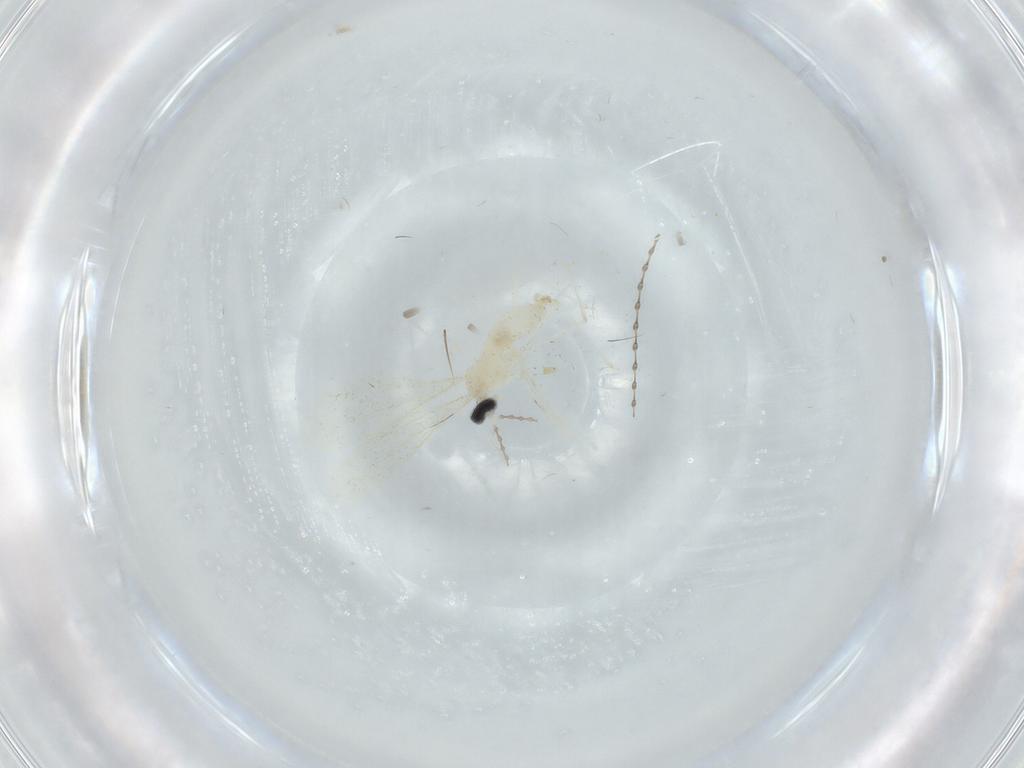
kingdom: Animalia
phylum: Arthropoda
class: Insecta
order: Diptera
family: Cecidomyiidae
